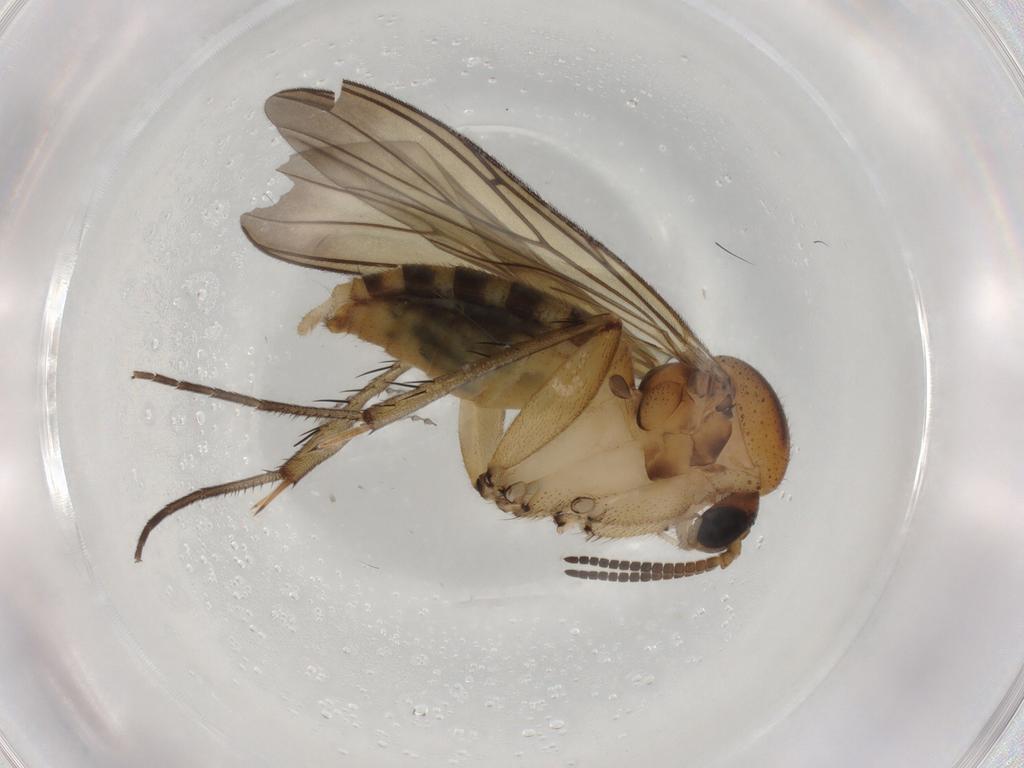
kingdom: Animalia
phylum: Arthropoda
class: Insecta
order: Diptera
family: Mycetophilidae
